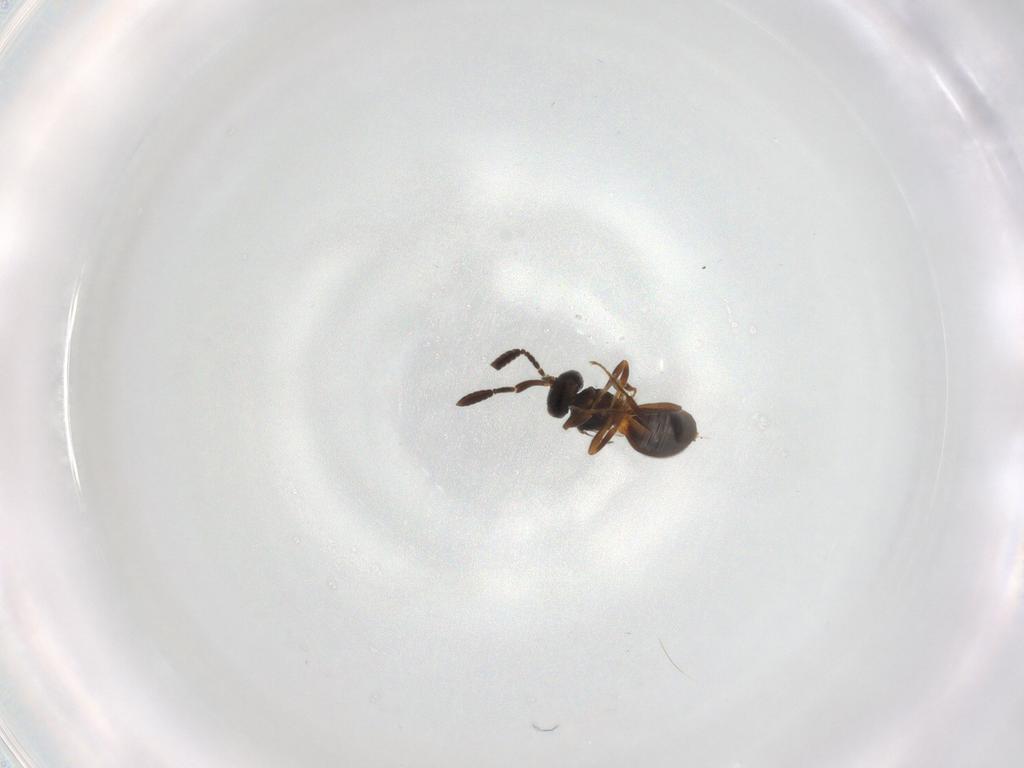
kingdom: Animalia
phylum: Arthropoda
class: Insecta
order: Hymenoptera
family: Scelionidae
